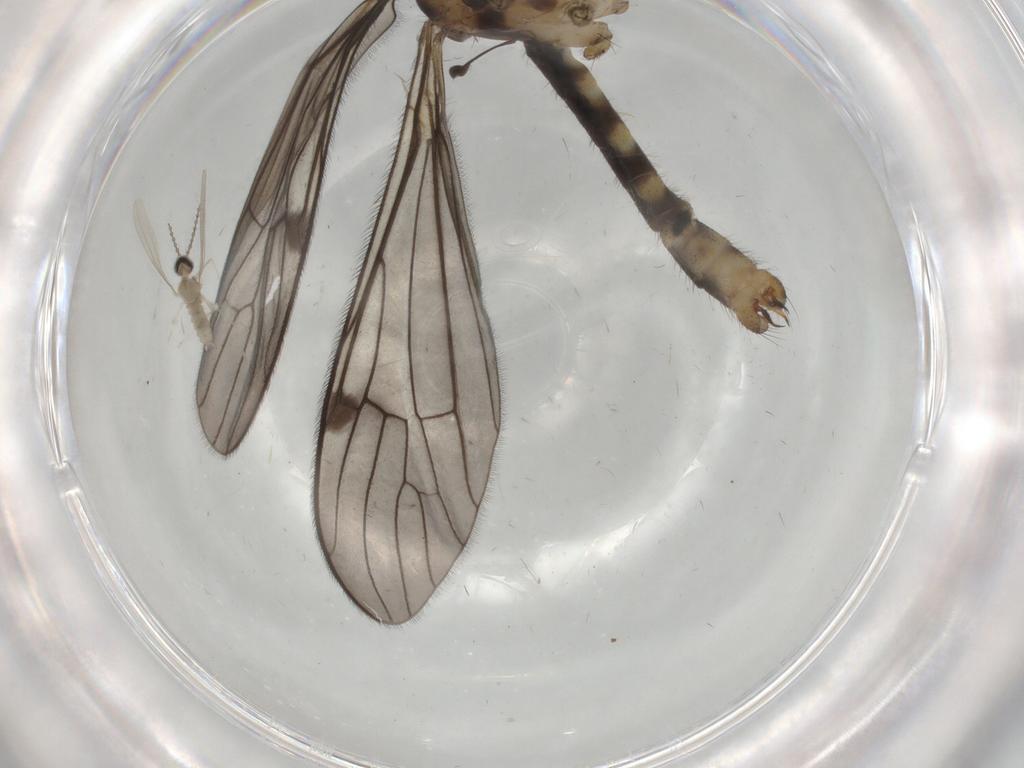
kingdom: Animalia
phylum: Arthropoda
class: Insecta
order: Diptera
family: Limoniidae
